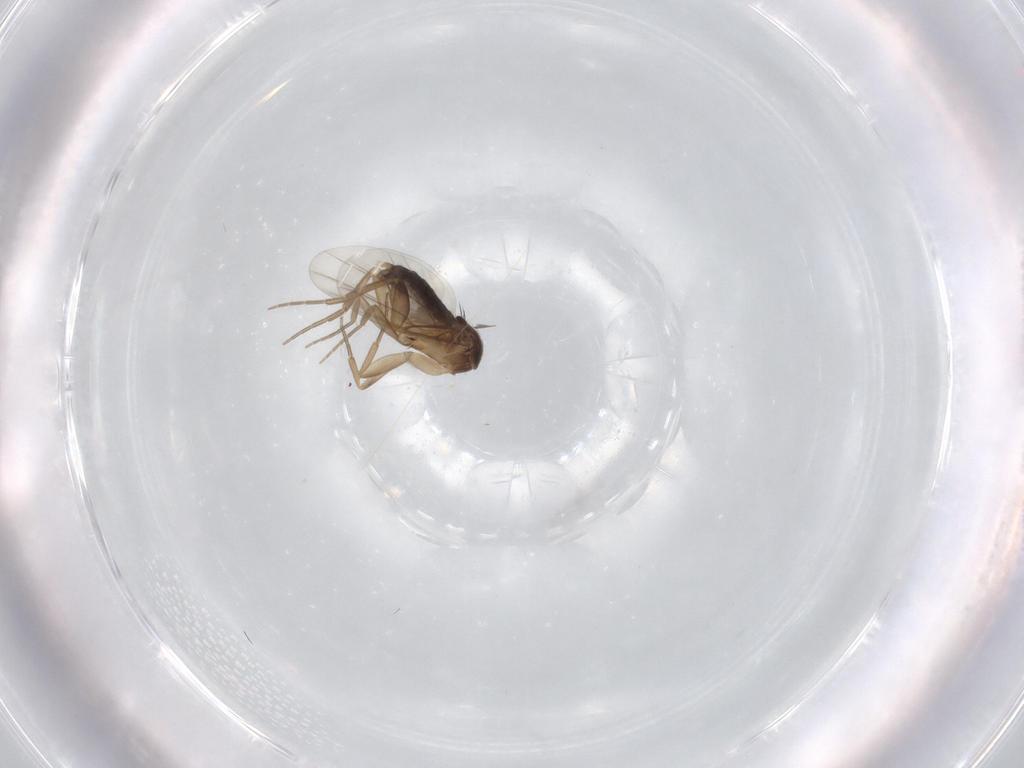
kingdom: Animalia
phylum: Arthropoda
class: Insecta
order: Diptera
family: Phoridae
